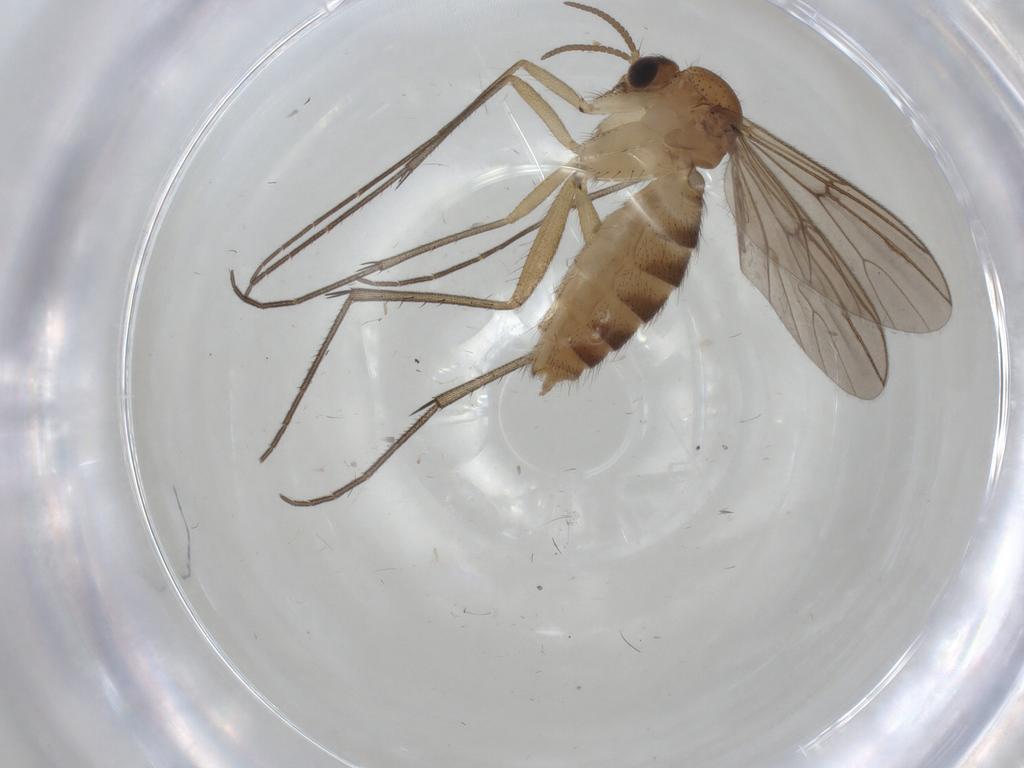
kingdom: Animalia
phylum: Arthropoda
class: Insecta
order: Diptera
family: Mycetophilidae
